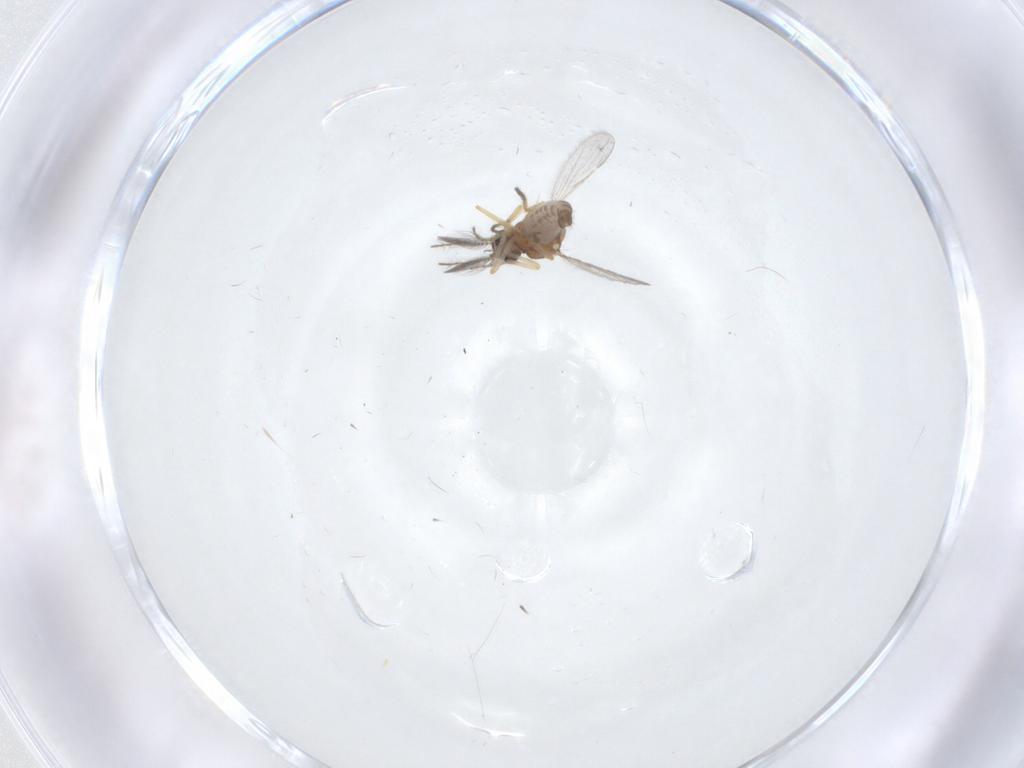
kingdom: Animalia
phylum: Arthropoda
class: Insecta
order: Diptera
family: Ceratopogonidae
